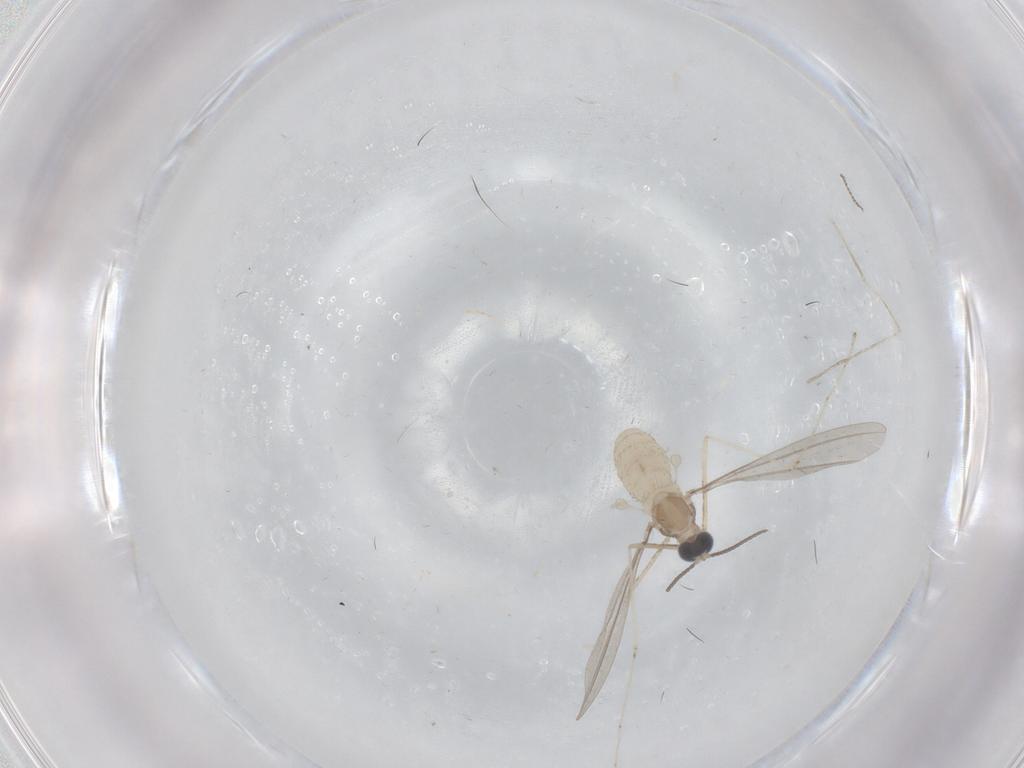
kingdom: Animalia
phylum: Arthropoda
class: Insecta
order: Diptera
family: Cecidomyiidae
